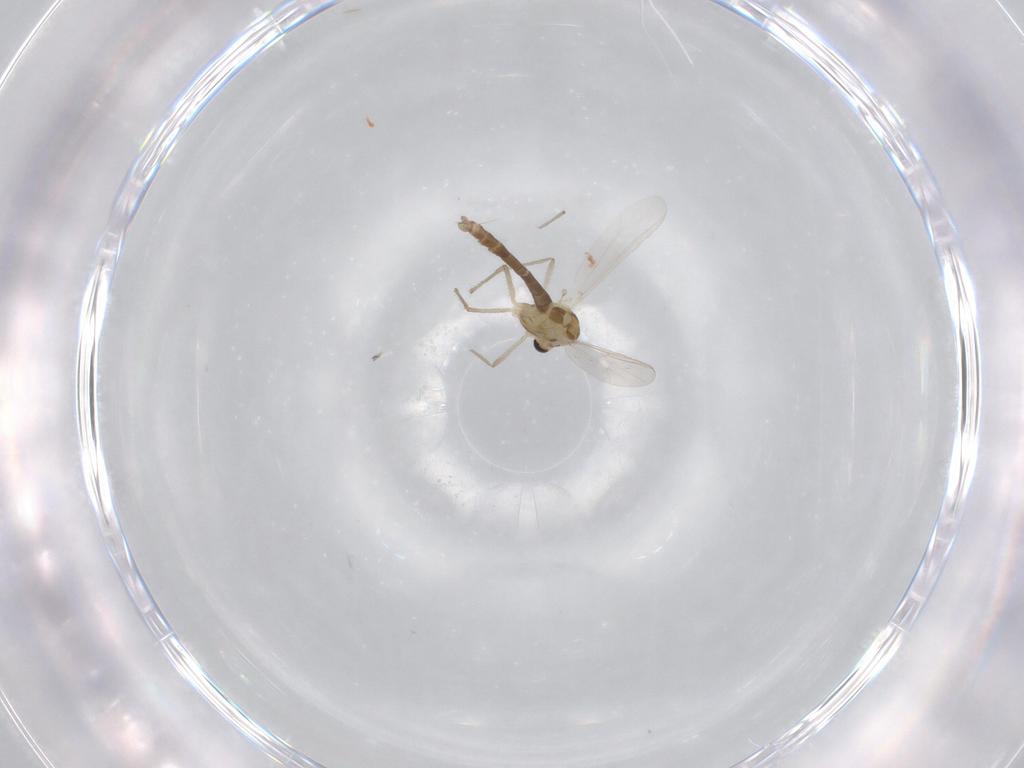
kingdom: Animalia
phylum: Arthropoda
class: Insecta
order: Diptera
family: Chironomidae
